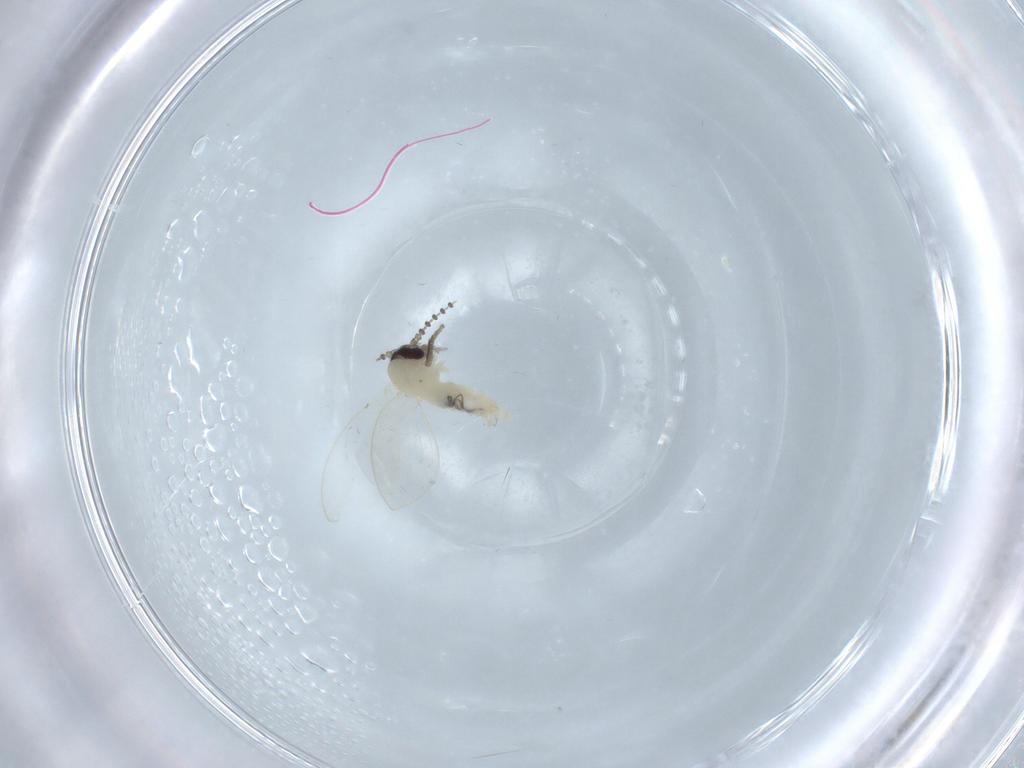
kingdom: Animalia
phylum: Arthropoda
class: Insecta
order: Diptera
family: Psychodidae
